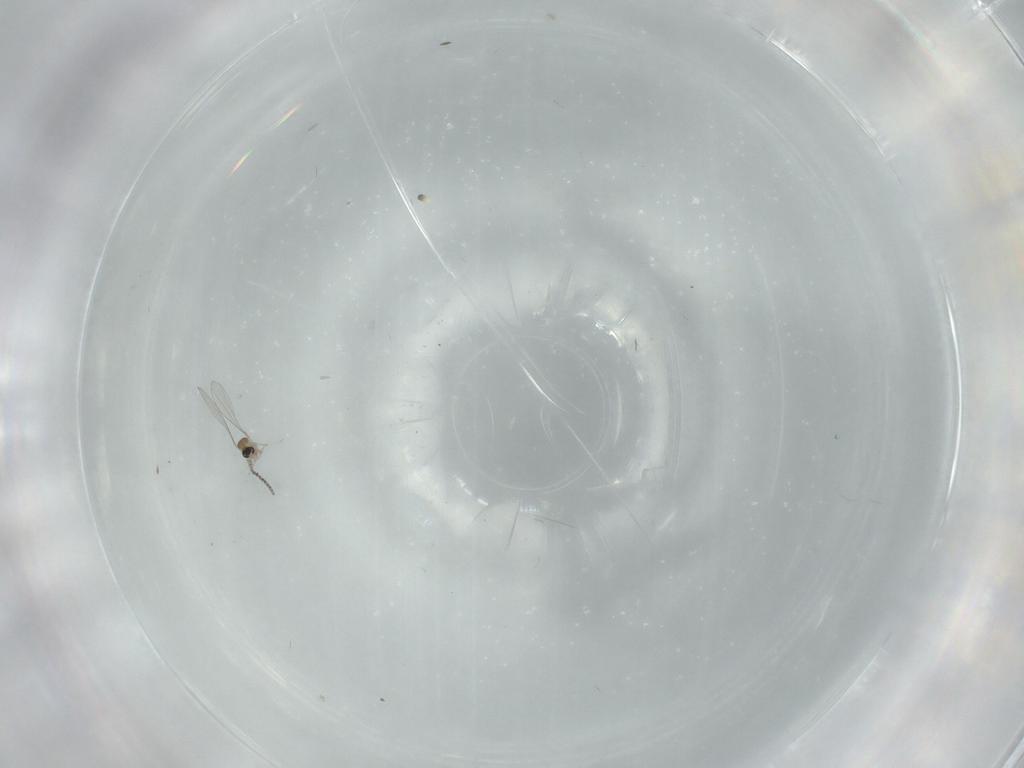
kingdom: Animalia
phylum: Arthropoda
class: Insecta
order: Diptera
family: Cecidomyiidae
